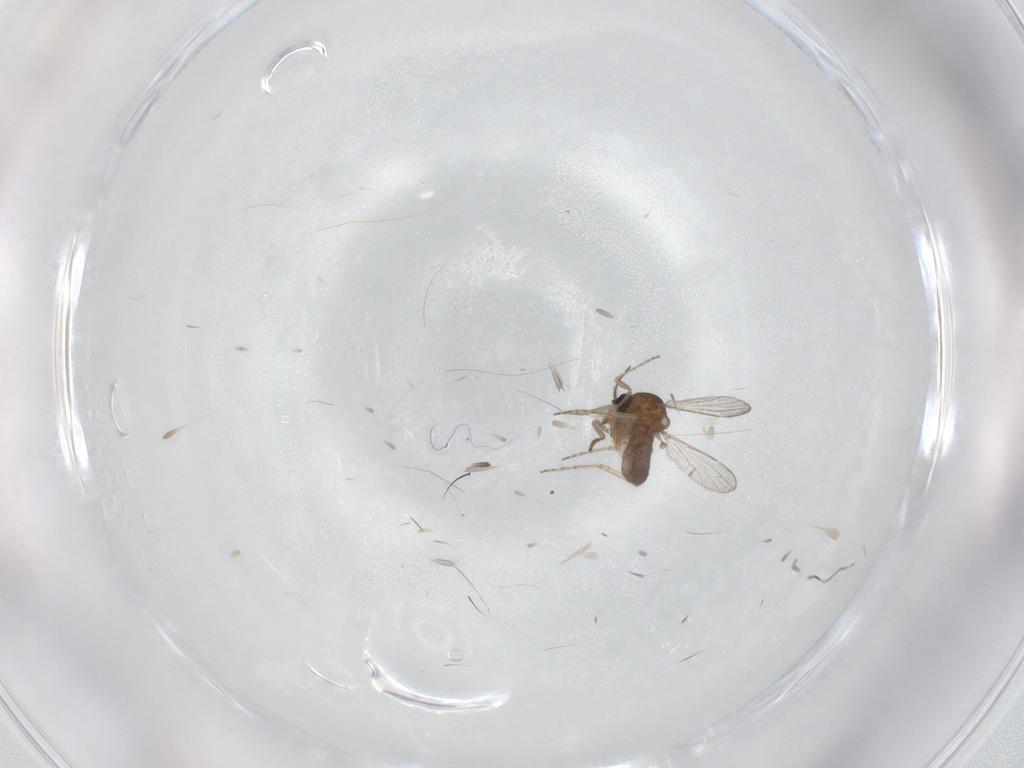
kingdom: Animalia
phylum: Arthropoda
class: Insecta
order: Diptera
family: Ceratopogonidae
